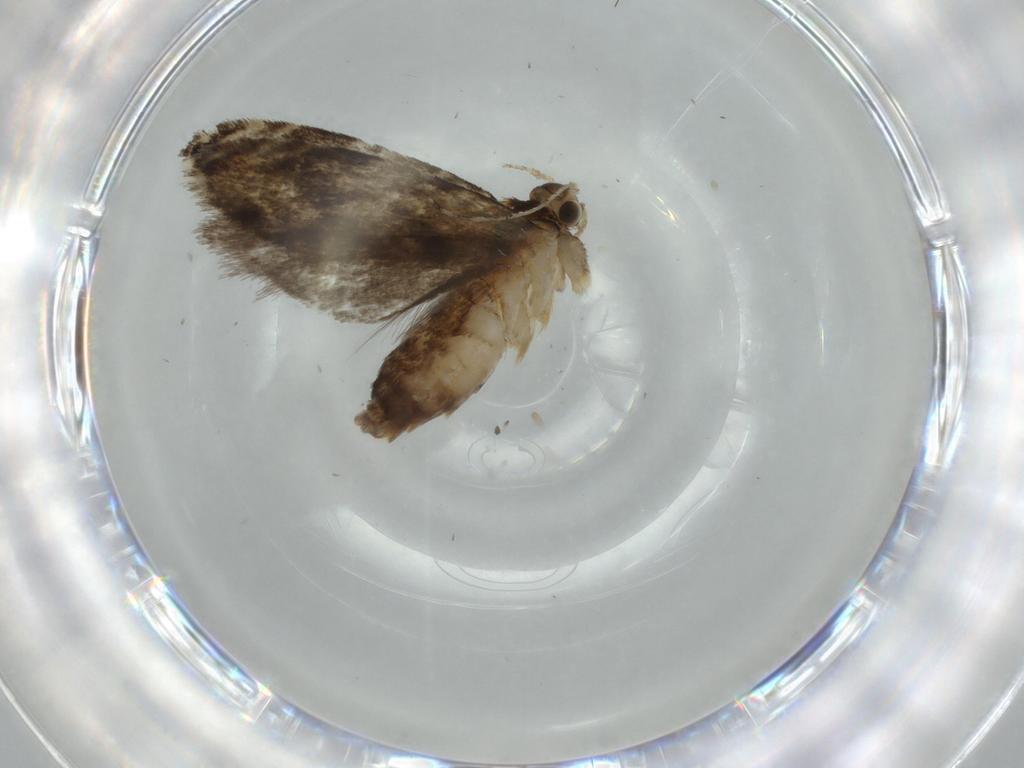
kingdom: Animalia
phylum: Arthropoda
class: Insecta
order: Lepidoptera
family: Tineidae
